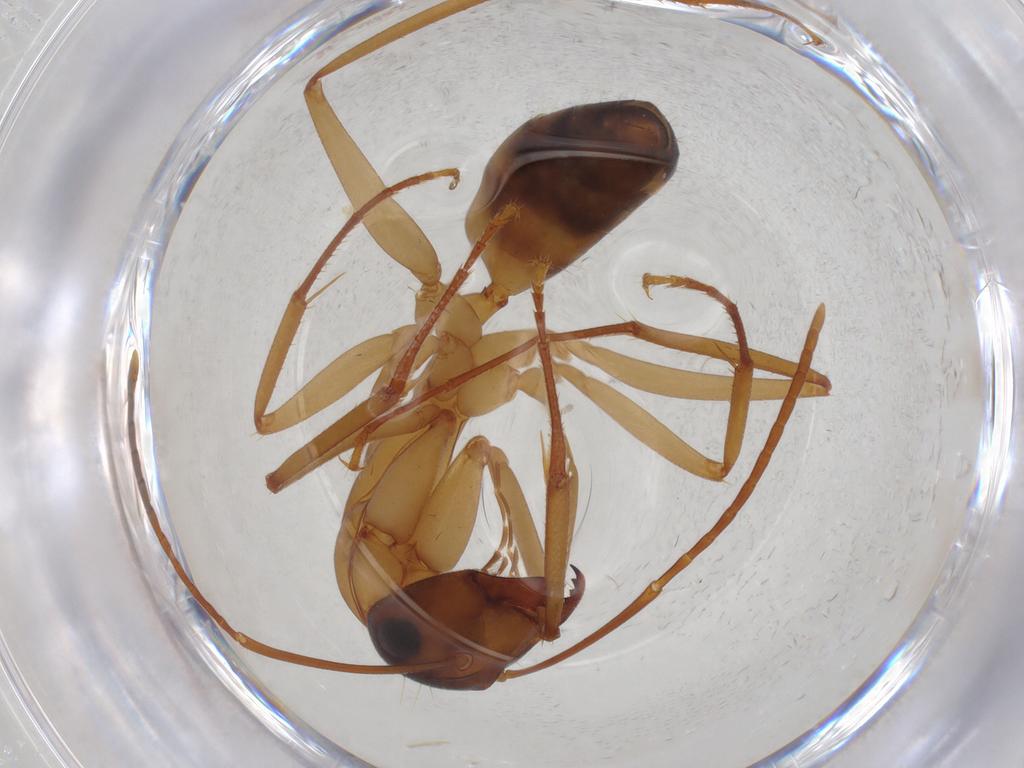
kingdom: Animalia
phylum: Arthropoda
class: Insecta
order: Hymenoptera
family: Formicidae
